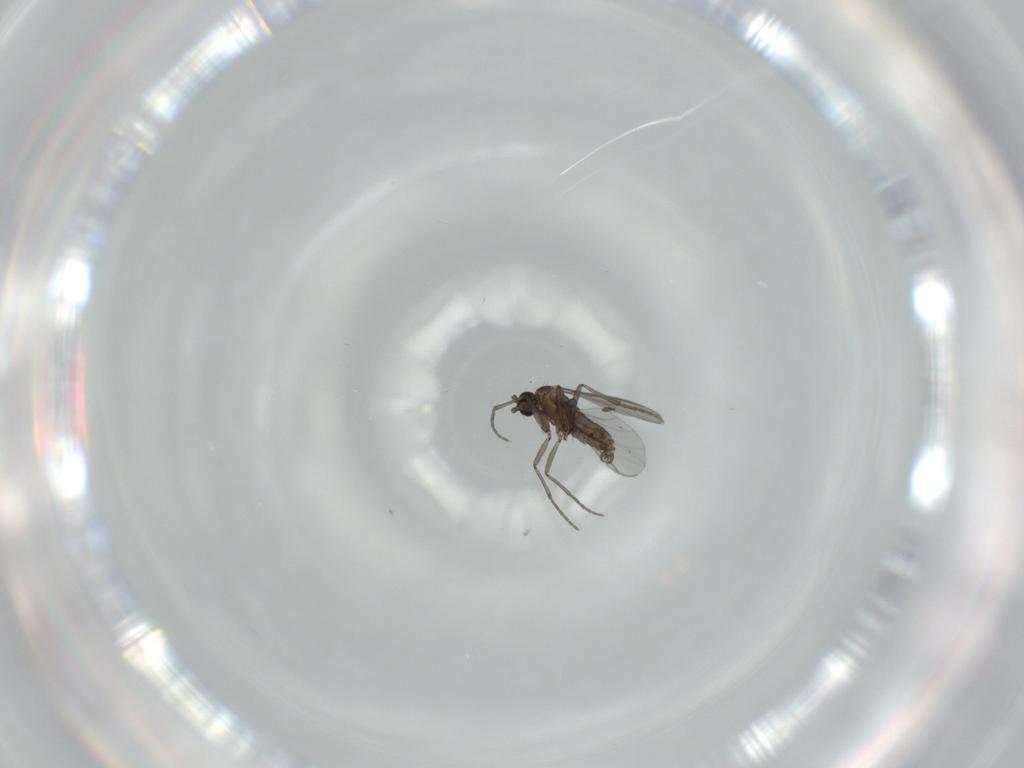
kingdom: Animalia
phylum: Arthropoda
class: Insecta
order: Diptera
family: Sciaridae
